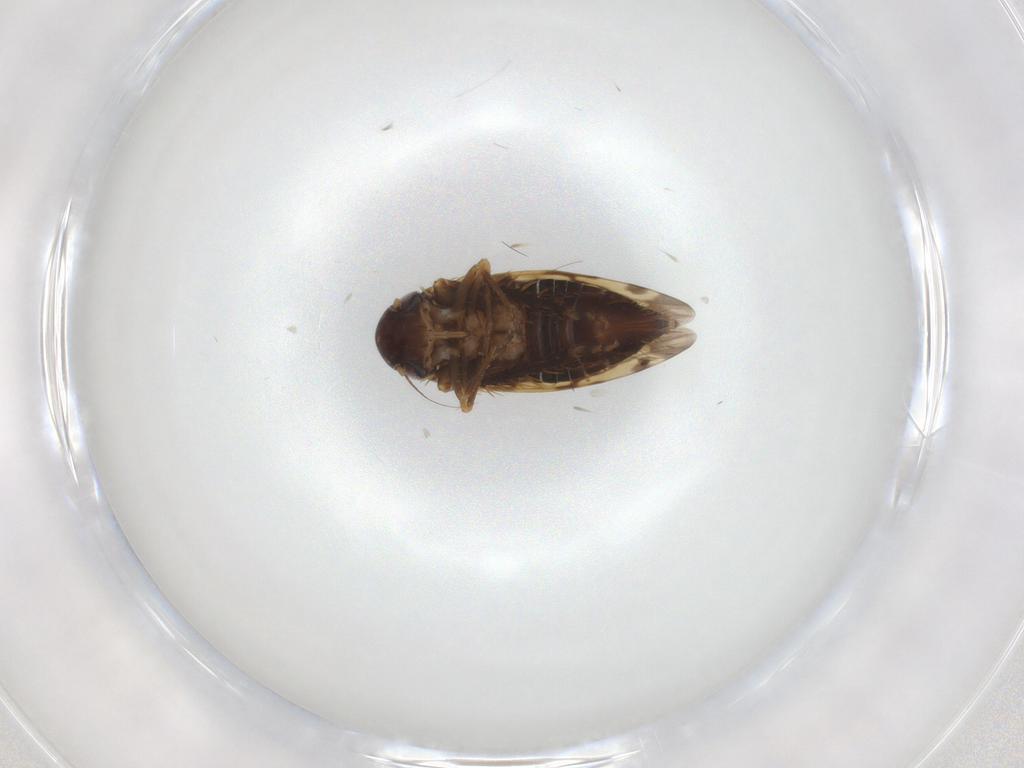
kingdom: Animalia
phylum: Arthropoda
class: Insecta
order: Hemiptera
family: Cicadellidae
